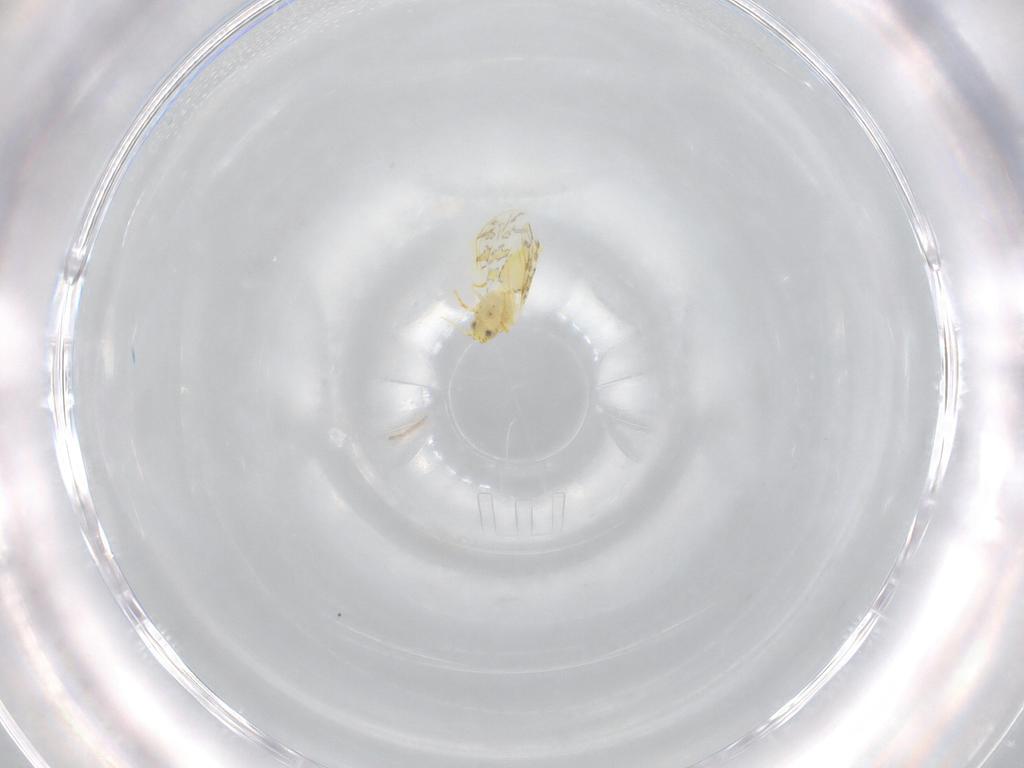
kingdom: Animalia
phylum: Arthropoda
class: Insecta
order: Hemiptera
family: Aleyrodidae
